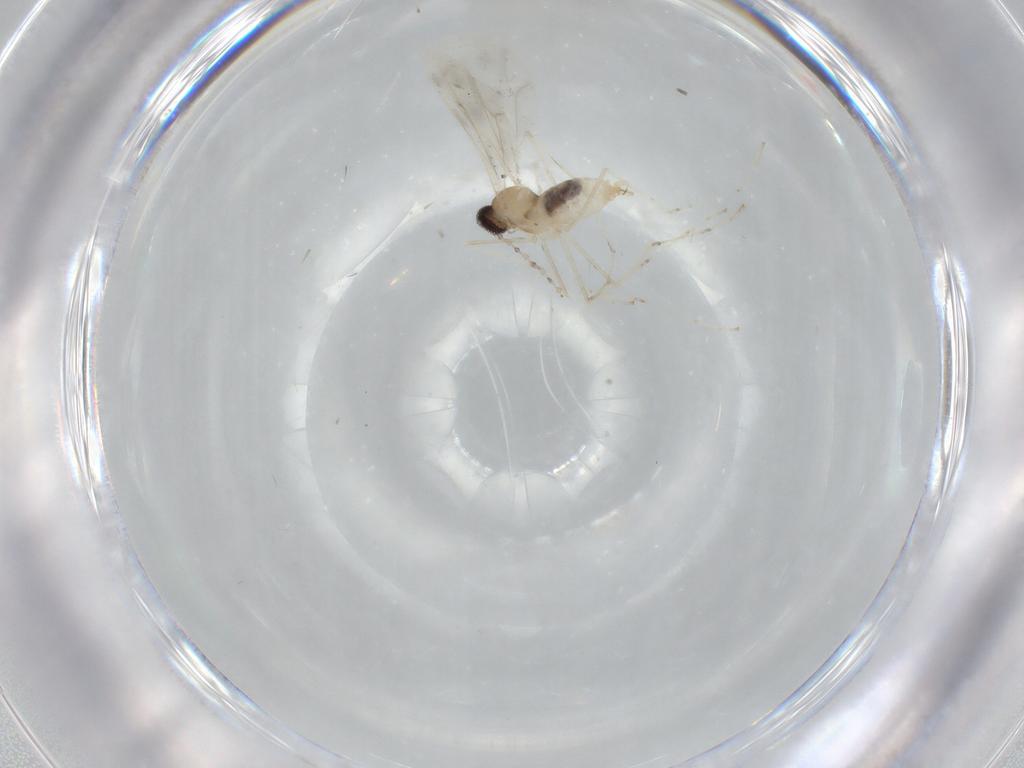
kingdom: Animalia
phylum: Arthropoda
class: Insecta
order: Diptera
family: Cecidomyiidae
